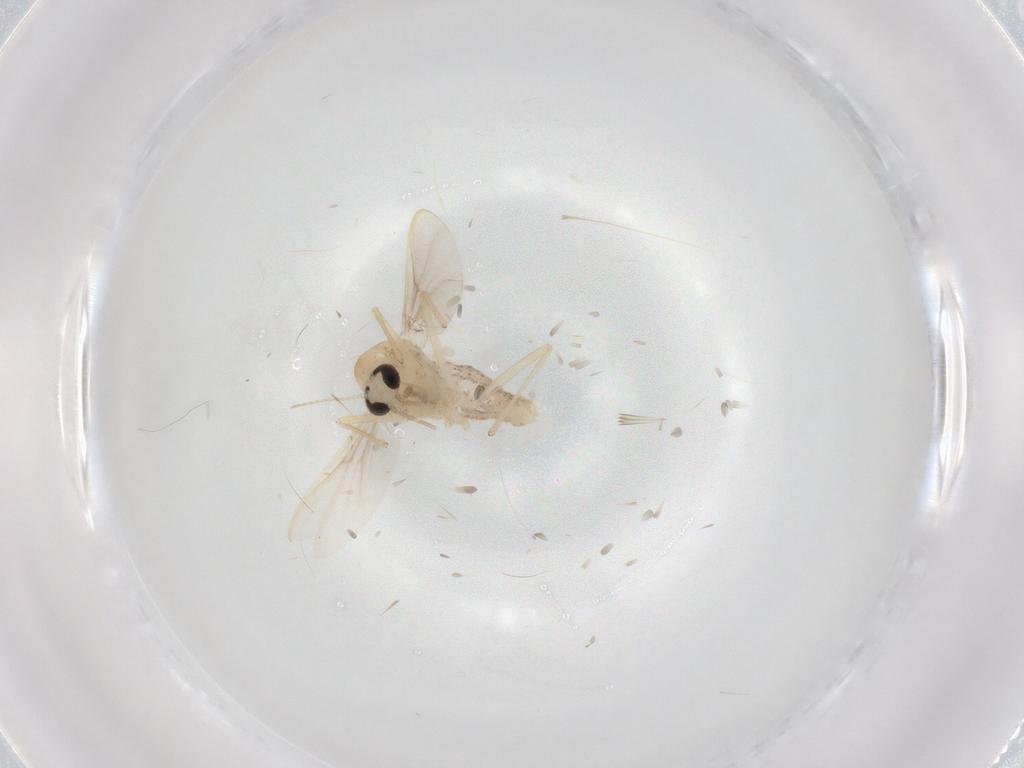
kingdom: Animalia
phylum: Arthropoda
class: Insecta
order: Diptera
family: Chironomidae
